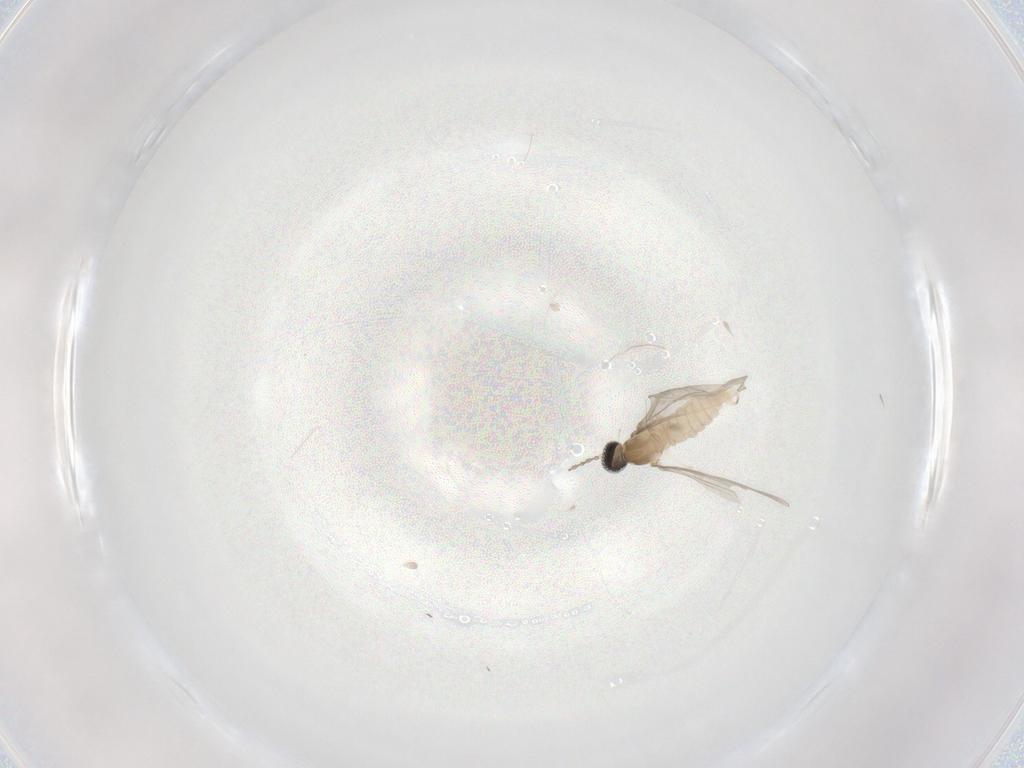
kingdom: Animalia
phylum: Arthropoda
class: Insecta
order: Diptera
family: Cecidomyiidae
